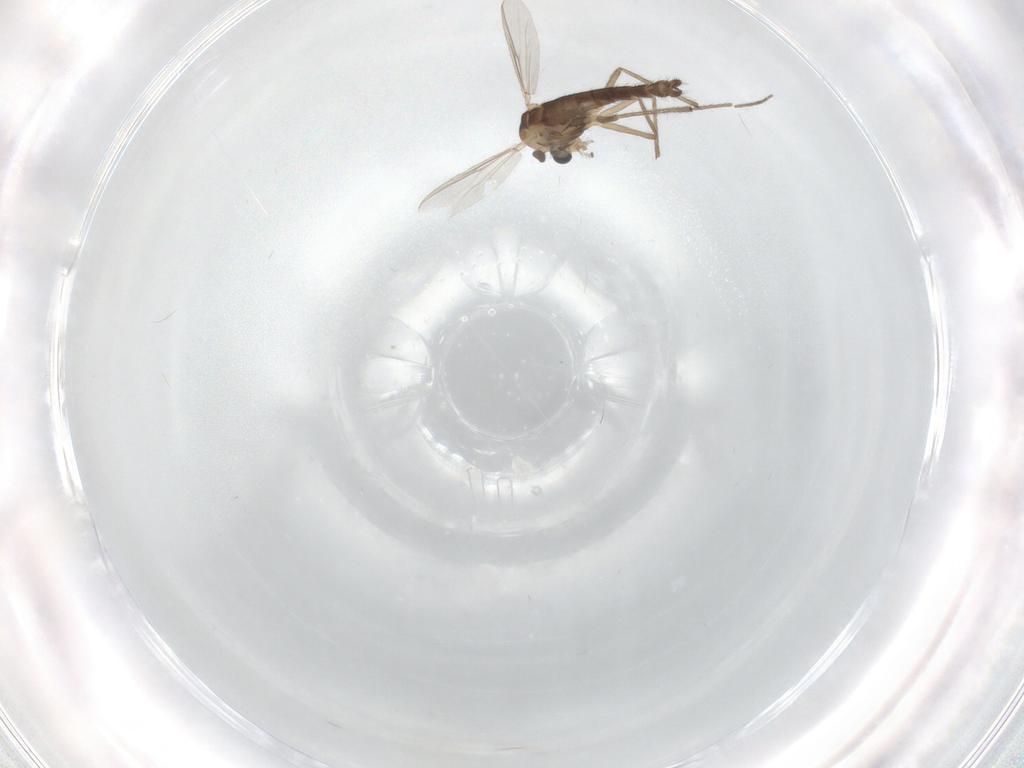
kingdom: Animalia
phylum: Arthropoda
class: Insecta
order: Diptera
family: Chironomidae
